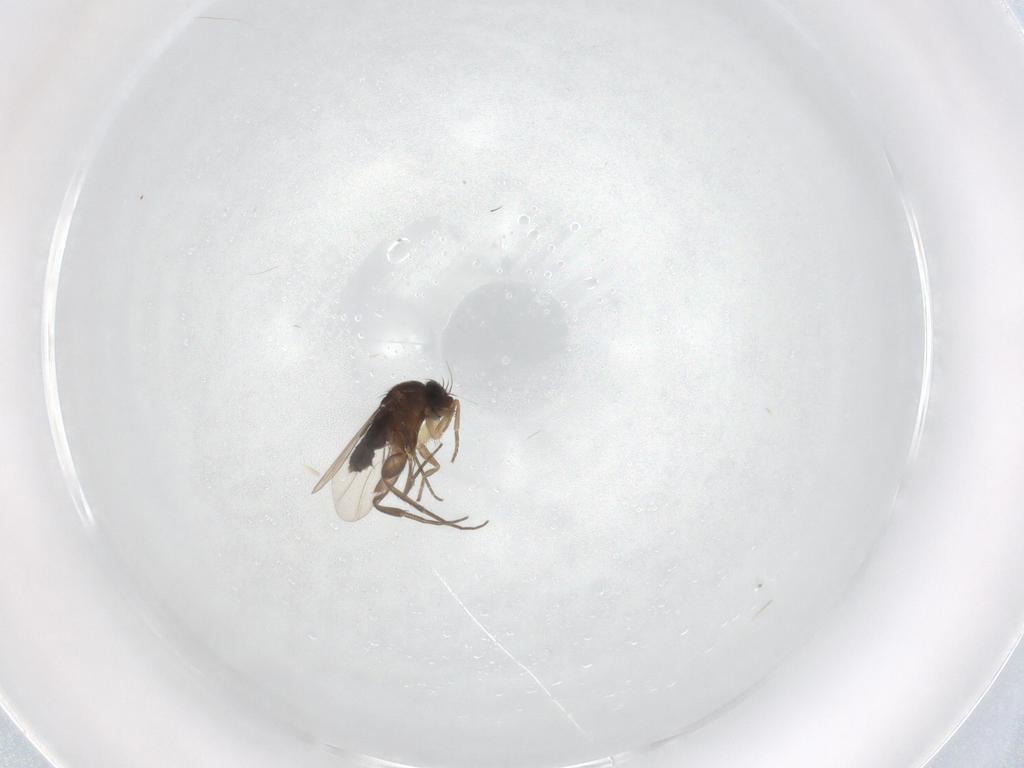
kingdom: Animalia
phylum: Arthropoda
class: Insecta
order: Diptera
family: Phoridae
